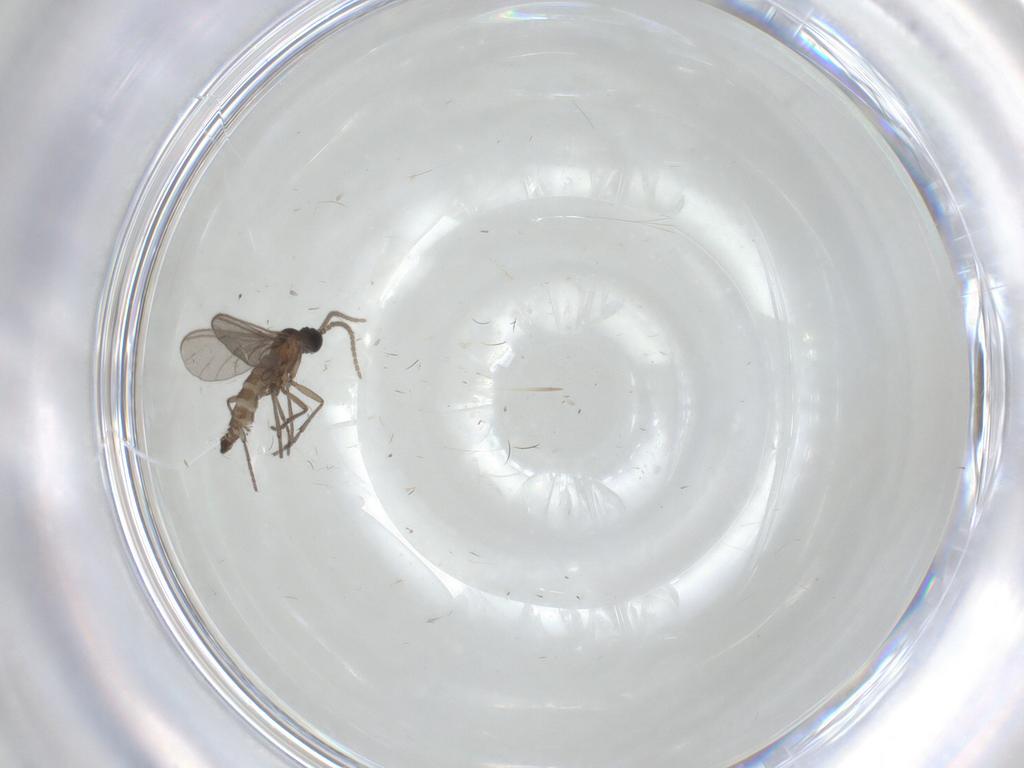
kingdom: Animalia
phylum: Arthropoda
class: Insecta
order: Diptera
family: Sciaridae
